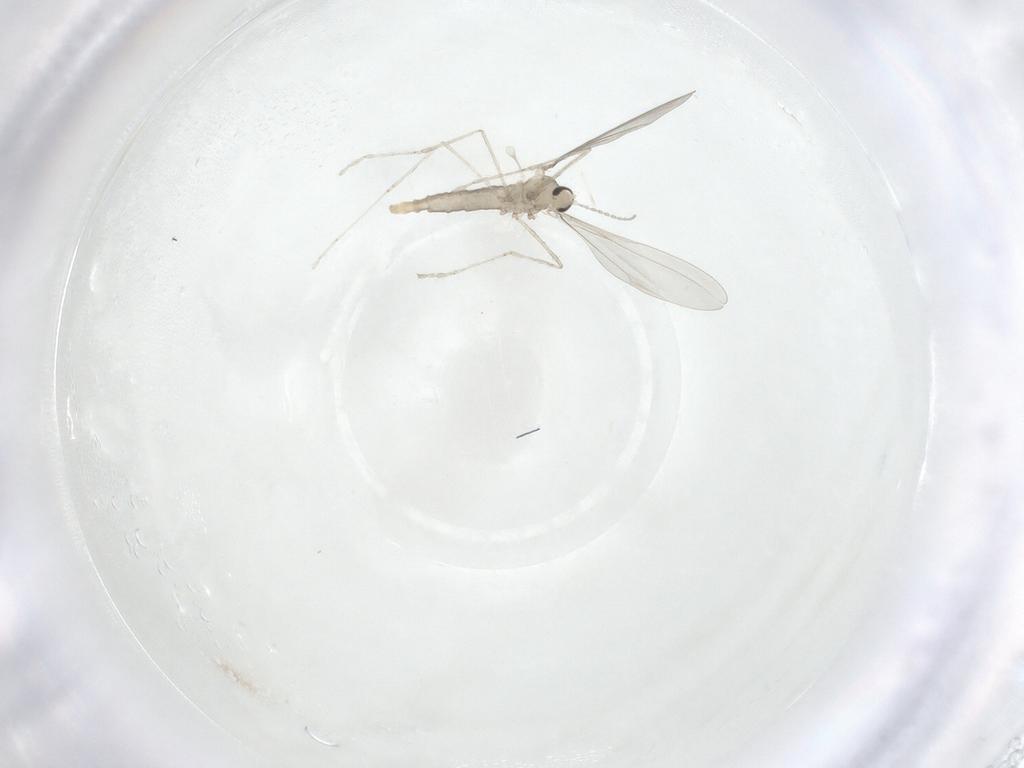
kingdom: Animalia
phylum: Arthropoda
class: Insecta
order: Diptera
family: Cecidomyiidae
